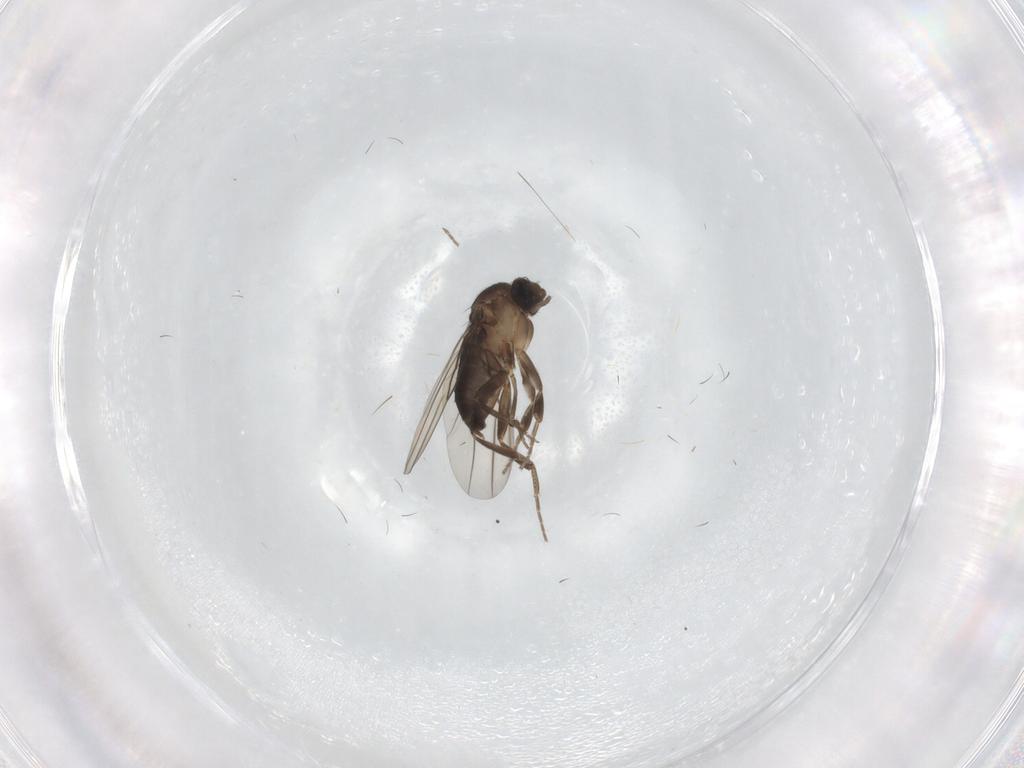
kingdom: Animalia
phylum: Arthropoda
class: Insecta
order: Diptera
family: Phoridae
